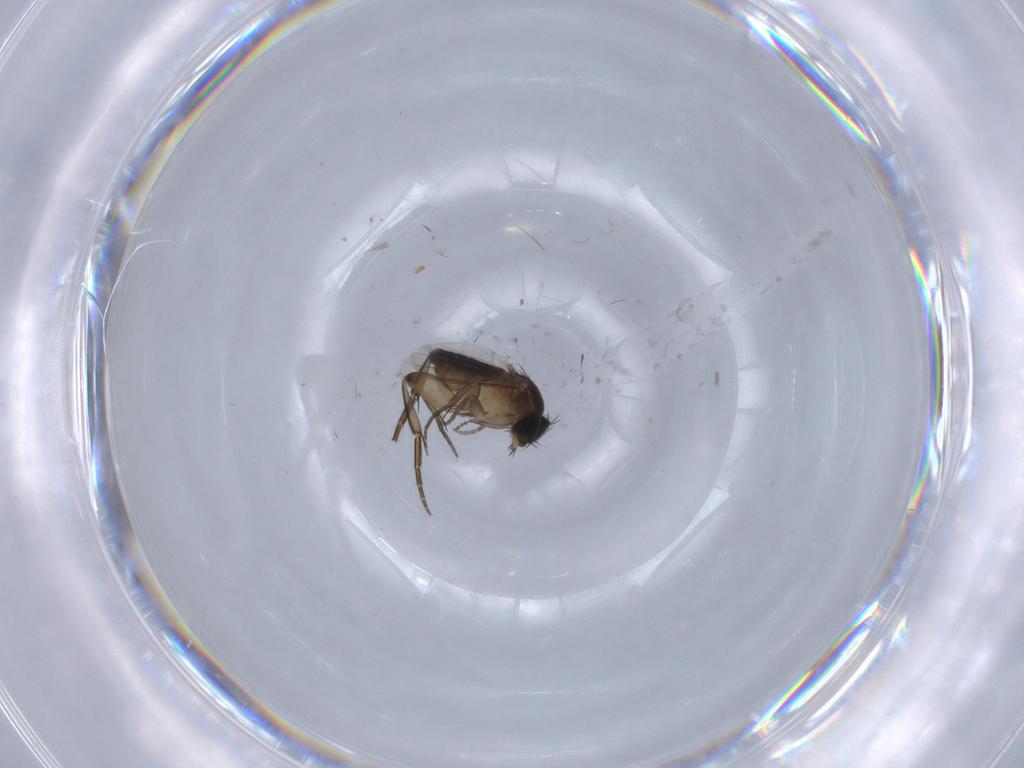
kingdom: Animalia
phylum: Arthropoda
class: Insecta
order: Diptera
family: Phoridae
